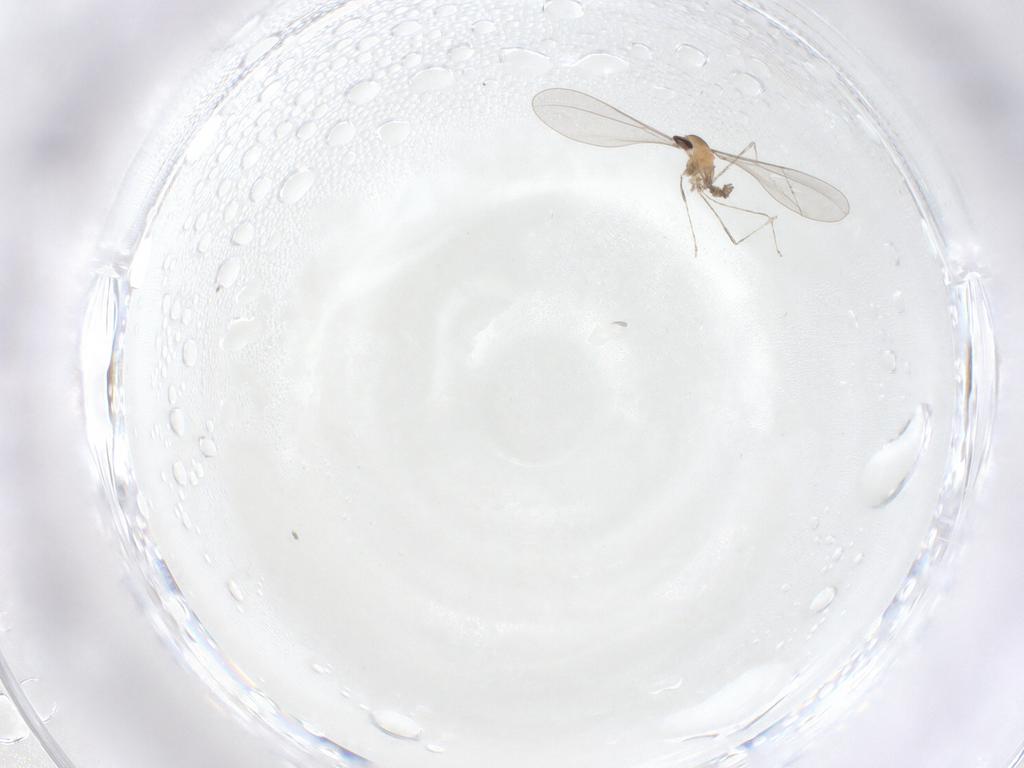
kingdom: Animalia
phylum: Arthropoda
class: Insecta
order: Diptera
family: Cecidomyiidae
